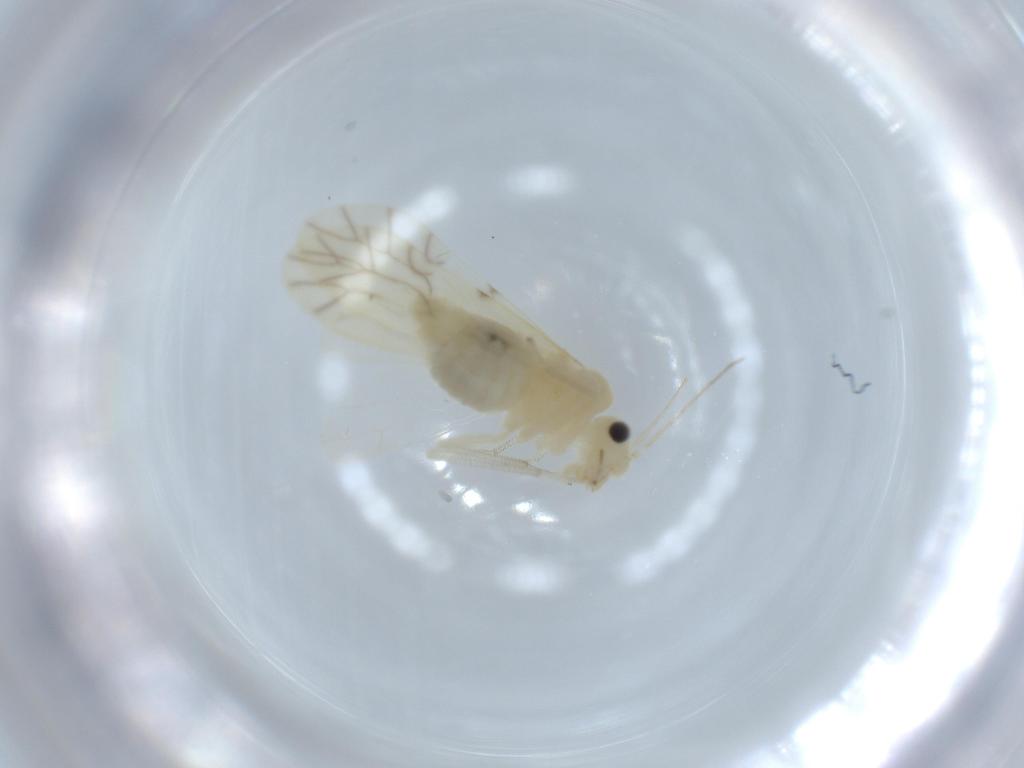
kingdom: Animalia
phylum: Arthropoda
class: Insecta
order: Psocodea
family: Caeciliusidae
